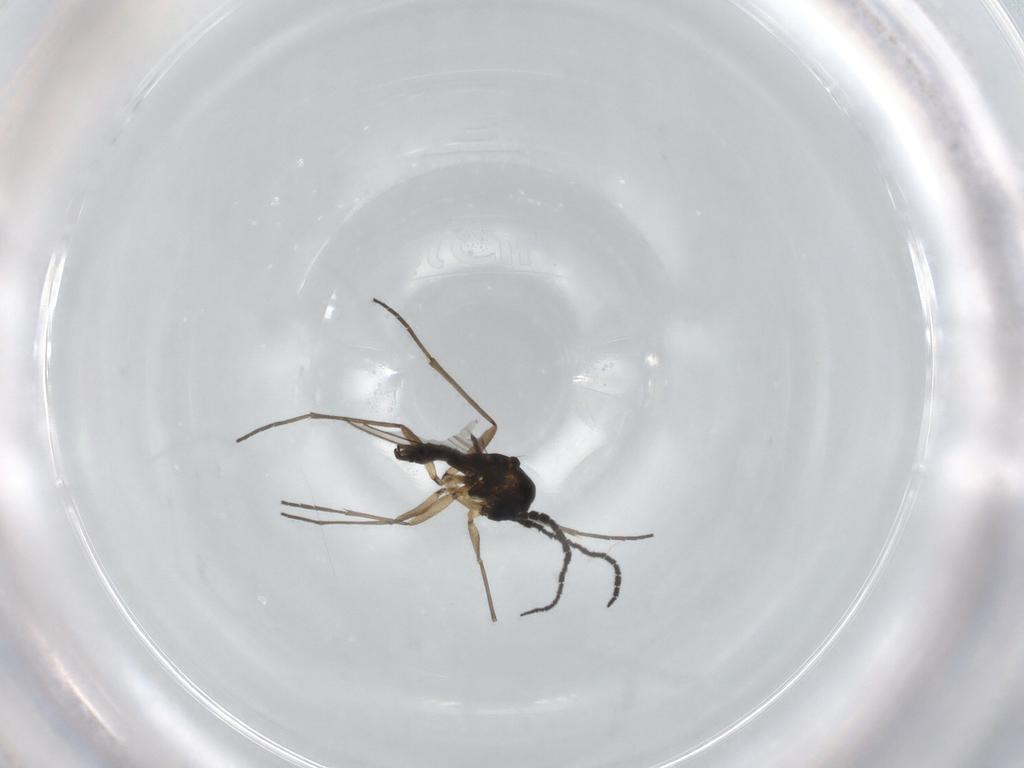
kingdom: Animalia
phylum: Arthropoda
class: Insecta
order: Diptera
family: Sciaridae
